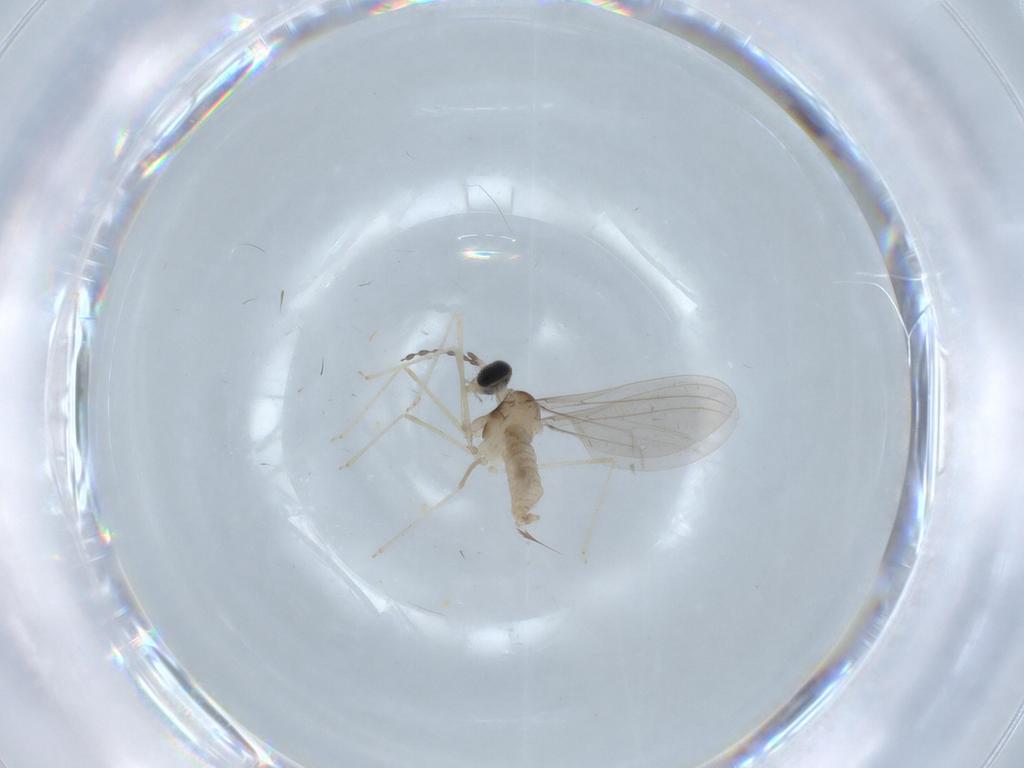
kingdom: Animalia
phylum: Arthropoda
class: Insecta
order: Diptera
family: Cecidomyiidae
